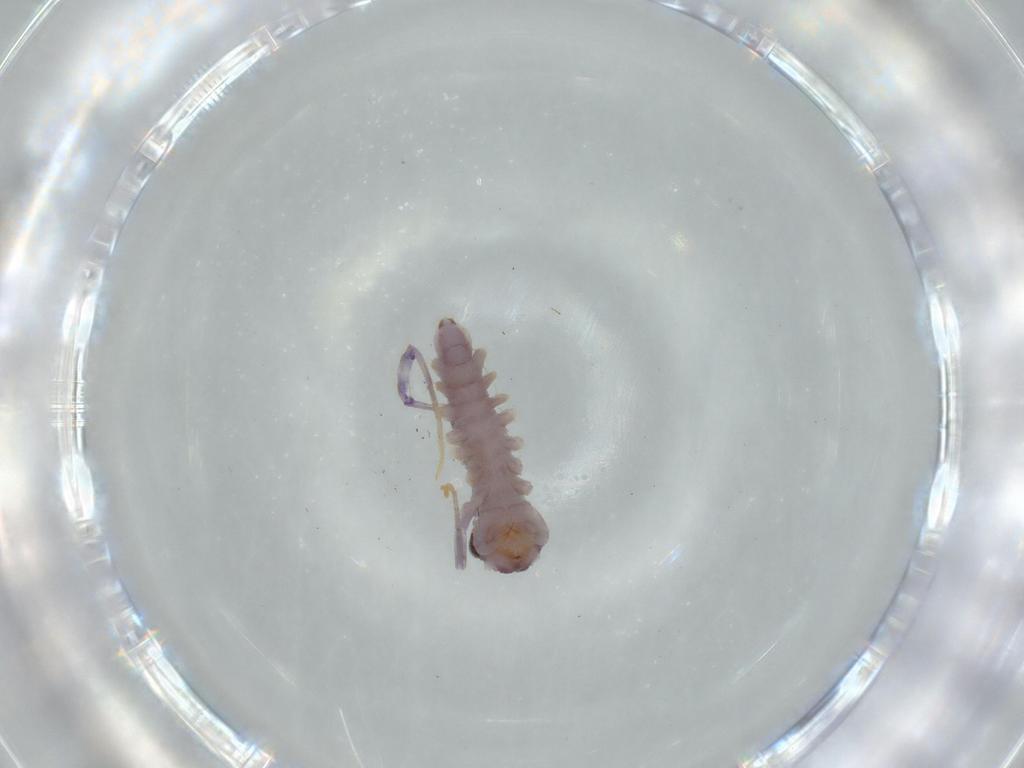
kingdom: Animalia
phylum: Arthropoda
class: Chilopoda
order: Scutigeromorpha
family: Scutigeridae
